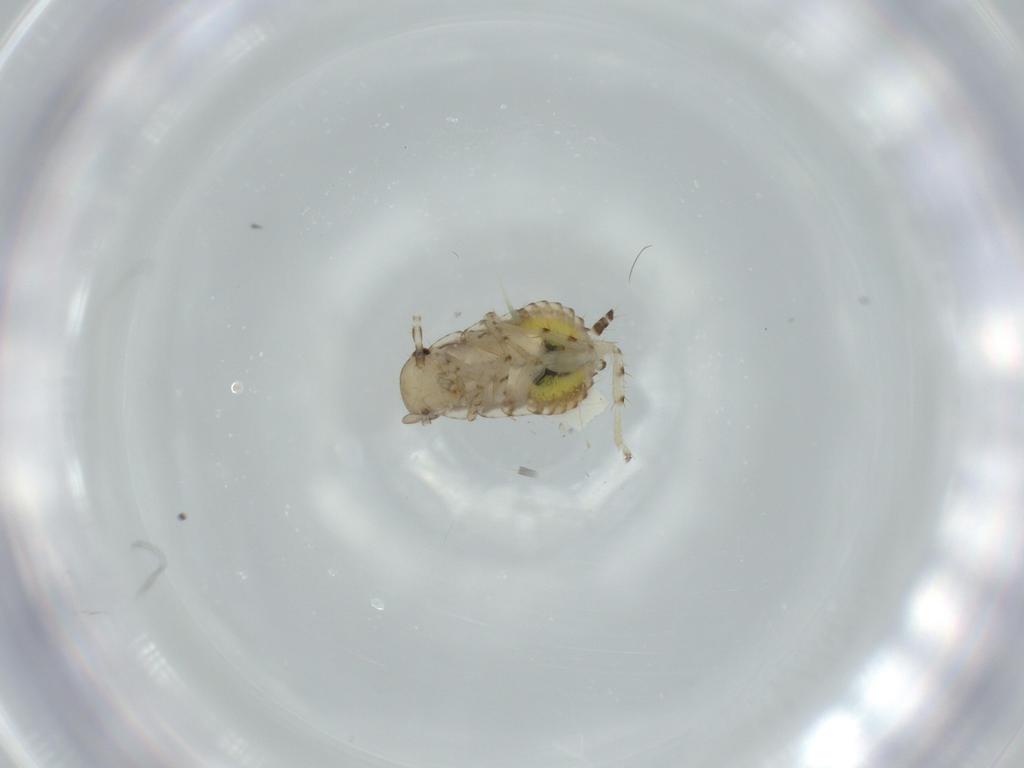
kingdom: Animalia
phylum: Arthropoda
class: Insecta
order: Blattodea
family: Ectobiidae
